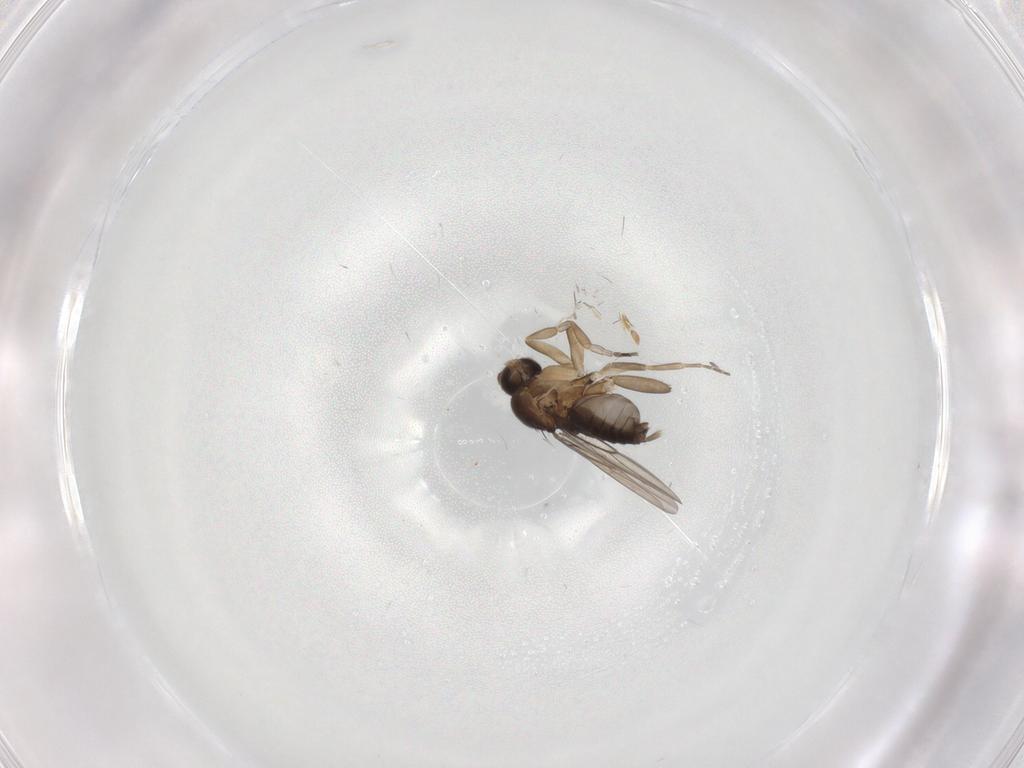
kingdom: Animalia
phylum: Arthropoda
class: Insecta
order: Diptera
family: Phoridae
